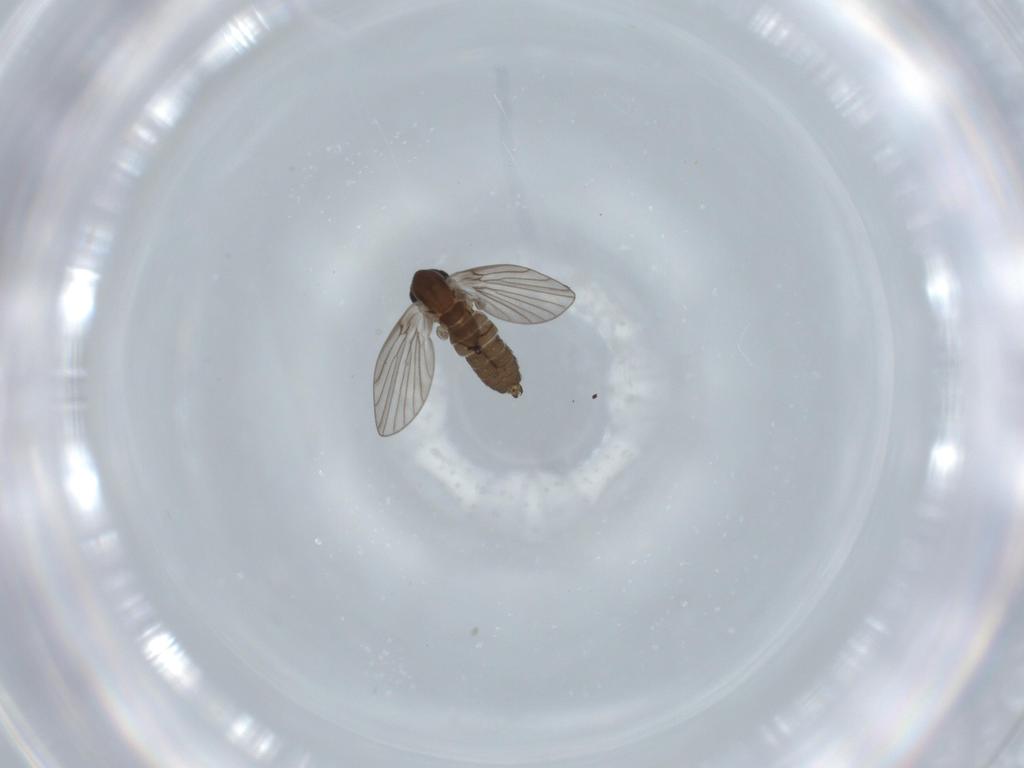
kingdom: Animalia
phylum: Arthropoda
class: Insecta
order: Diptera
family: Psychodidae
